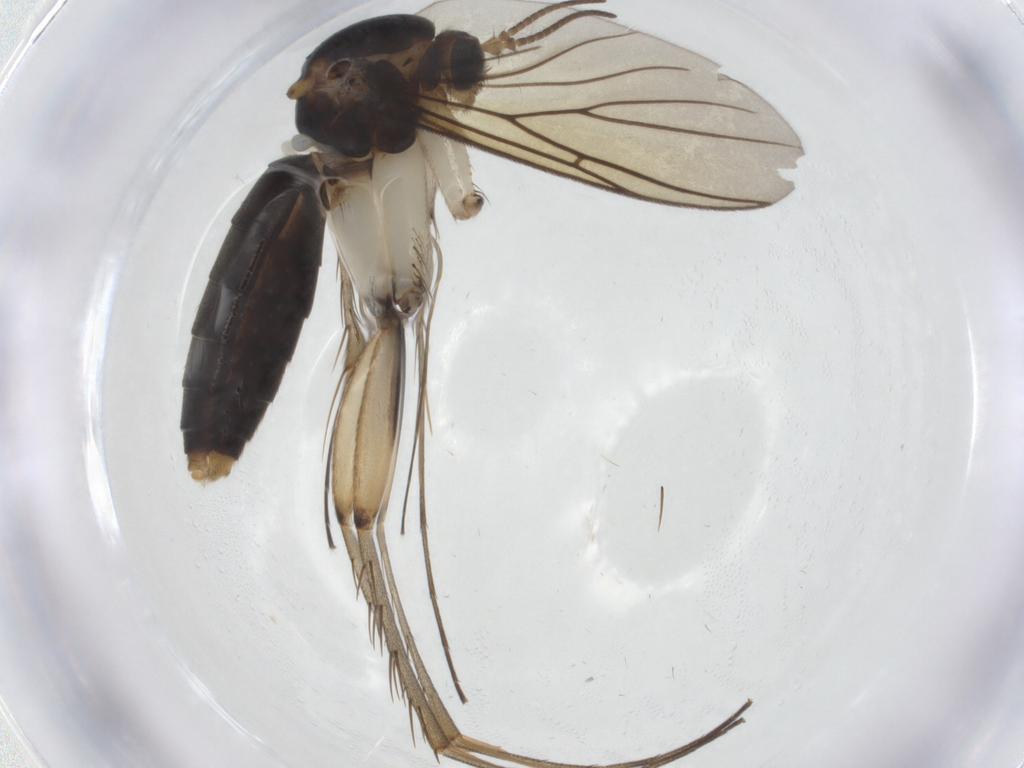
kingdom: Animalia
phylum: Arthropoda
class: Insecta
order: Diptera
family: Mycetophilidae
